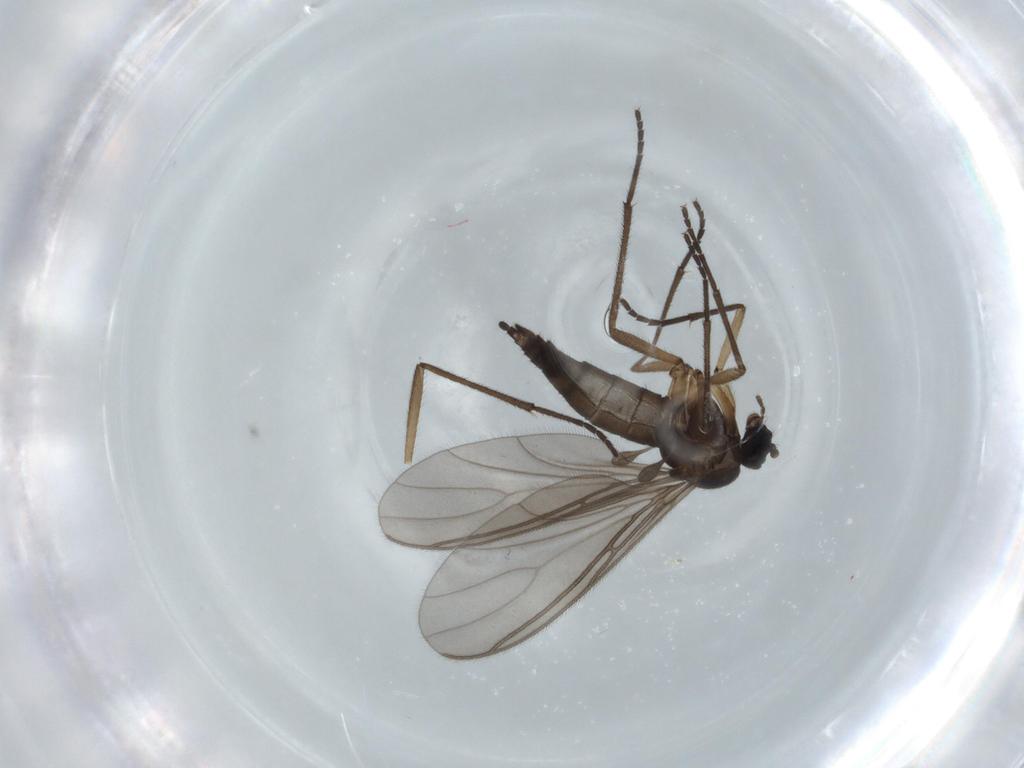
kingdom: Animalia
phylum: Arthropoda
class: Insecta
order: Diptera
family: Sciaridae
